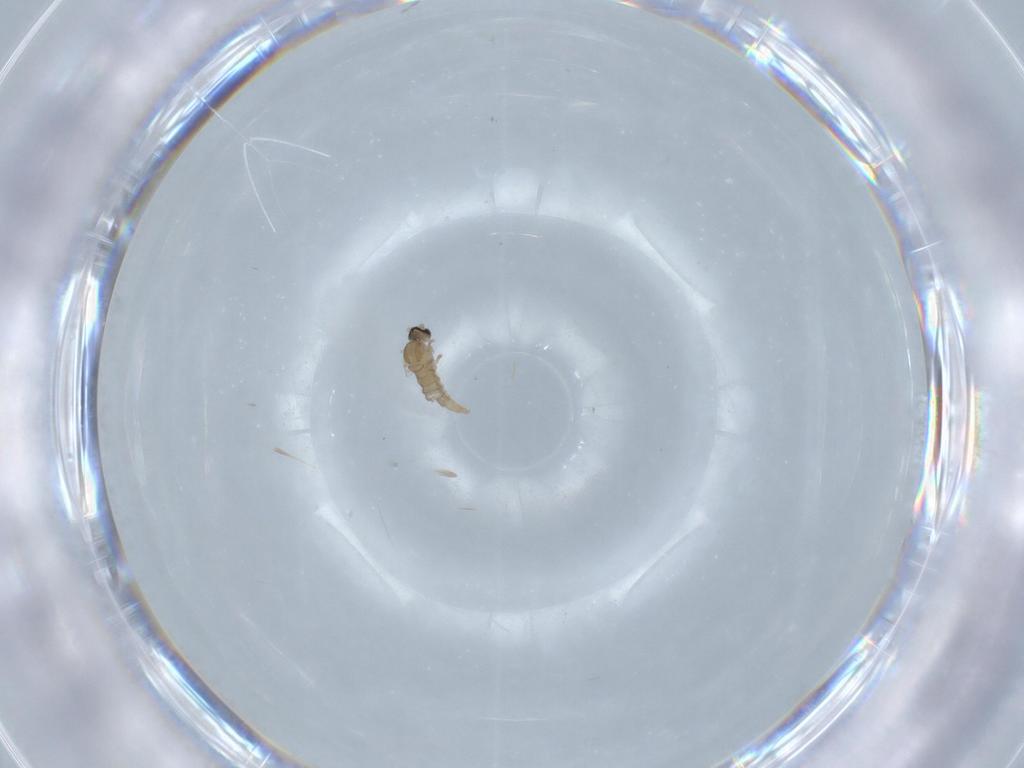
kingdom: Animalia
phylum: Arthropoda
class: Insecta
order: Diptera
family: Cecidomyiidae
